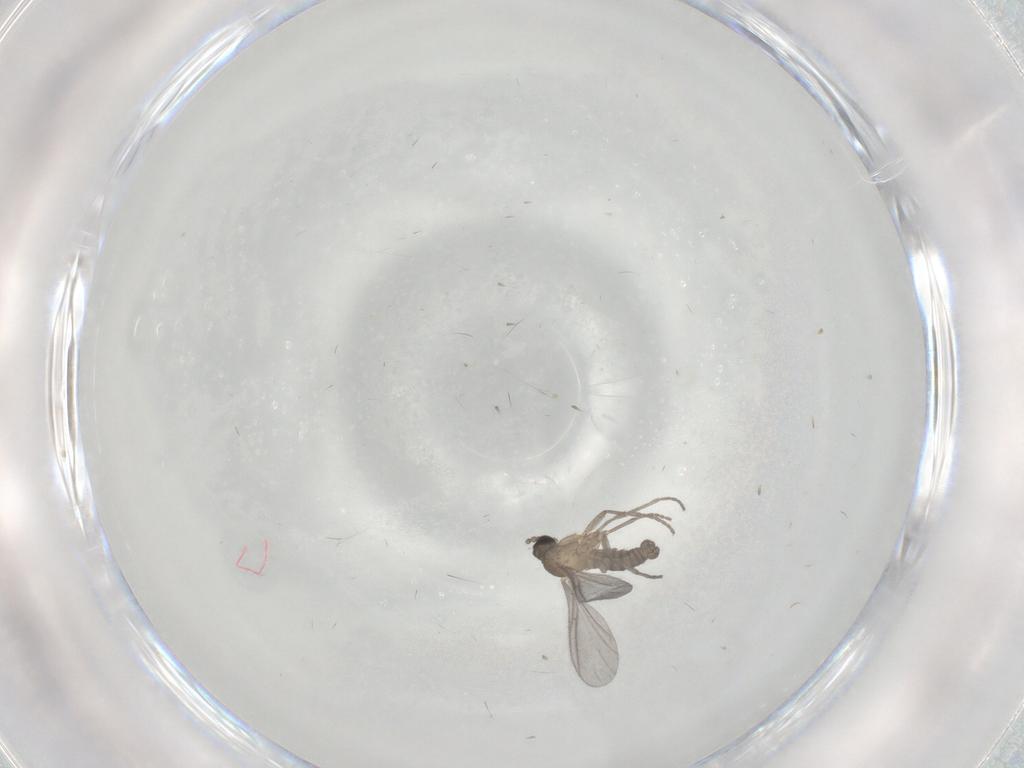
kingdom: Animalia
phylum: Arthropoda
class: Insecta
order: Diptera
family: Sciaridae
